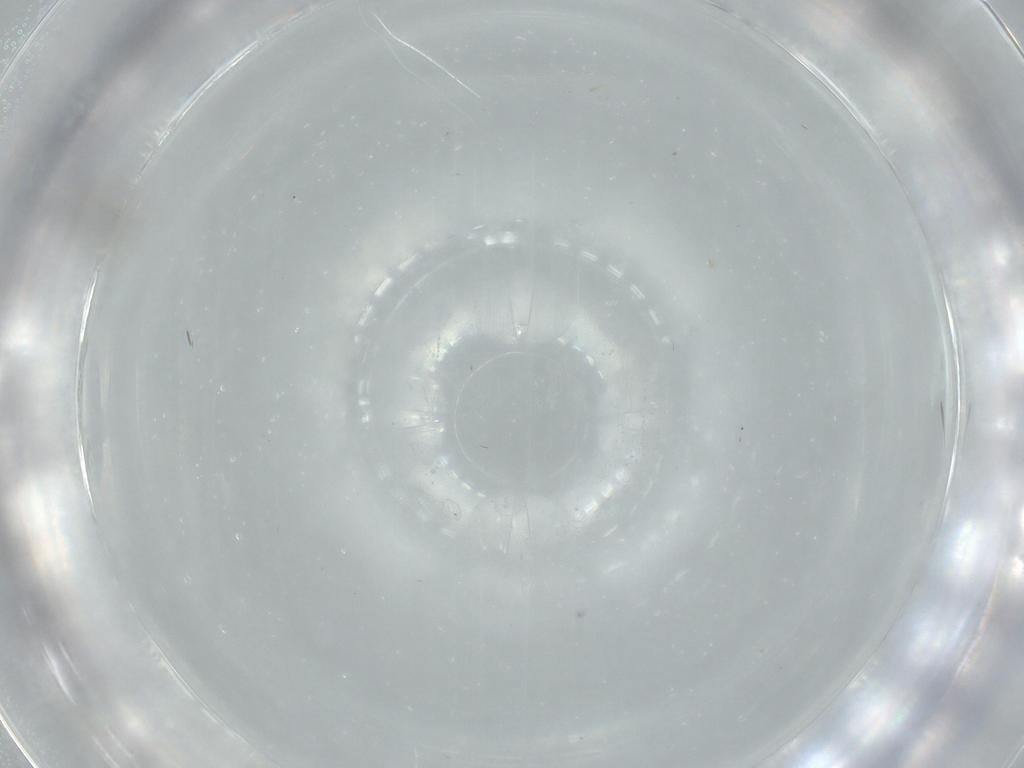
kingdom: Animalia
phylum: Arthropoda
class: Insecta
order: Hymenoptera
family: Aphelinidae
